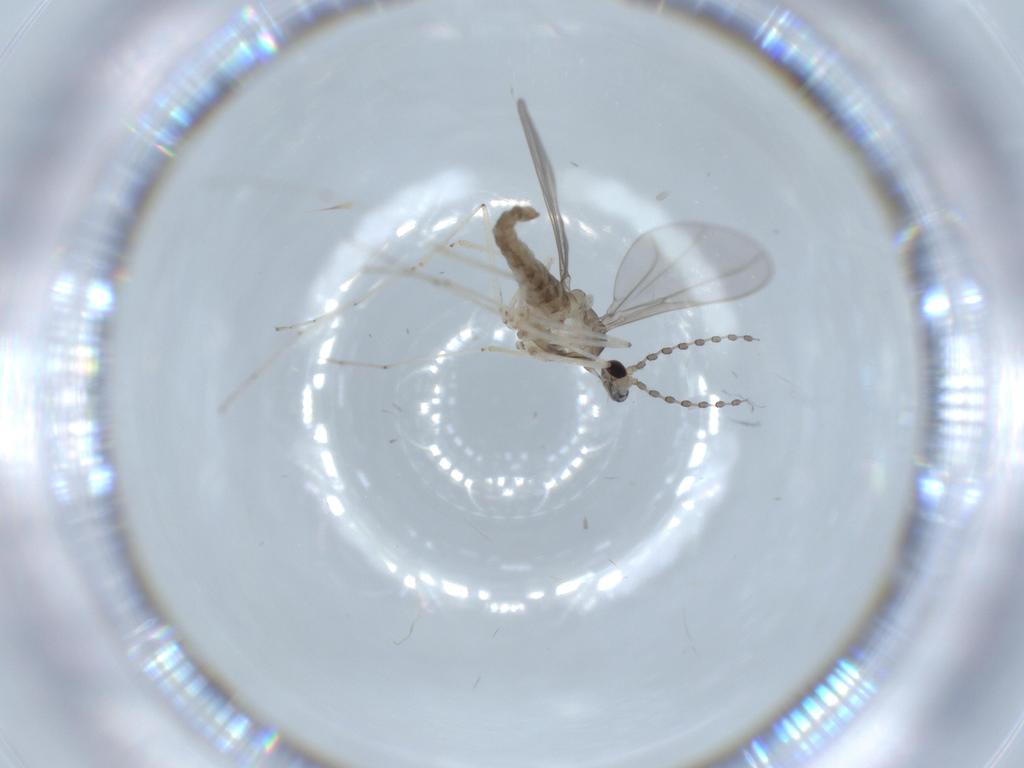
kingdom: Animalia
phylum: Arthropoda
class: Insecta
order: Diptera
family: Cecidomyiidae
